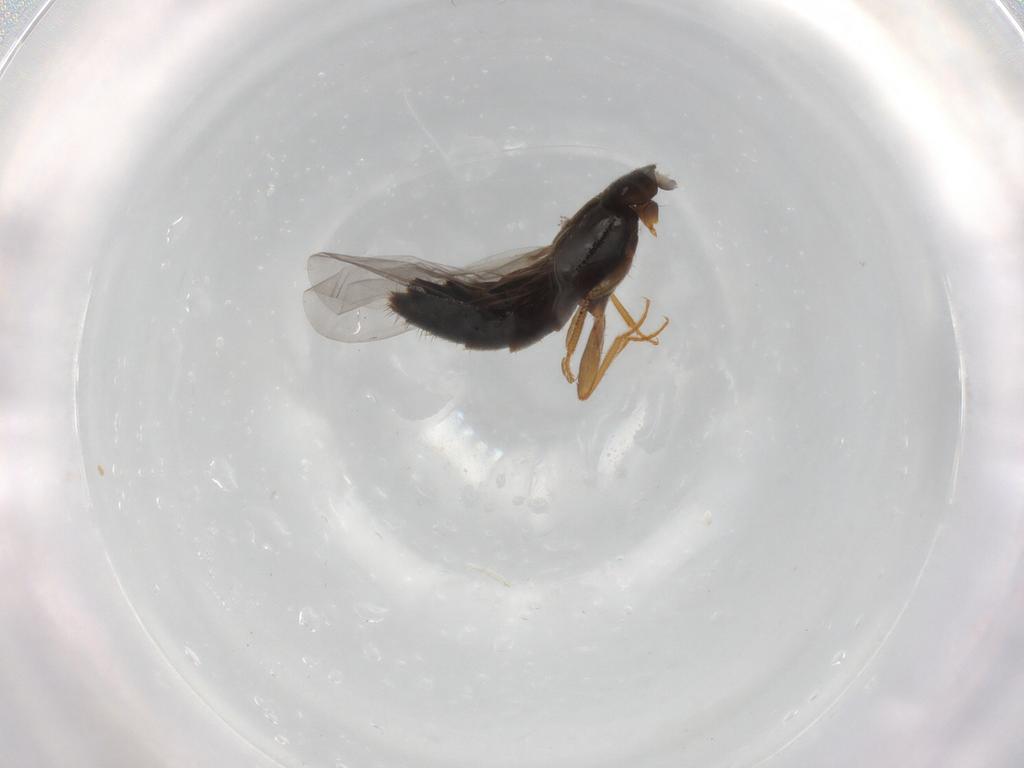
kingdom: Animalia
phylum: Arthropoda
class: Insecta
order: Coleoptera
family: Staphylinidae
